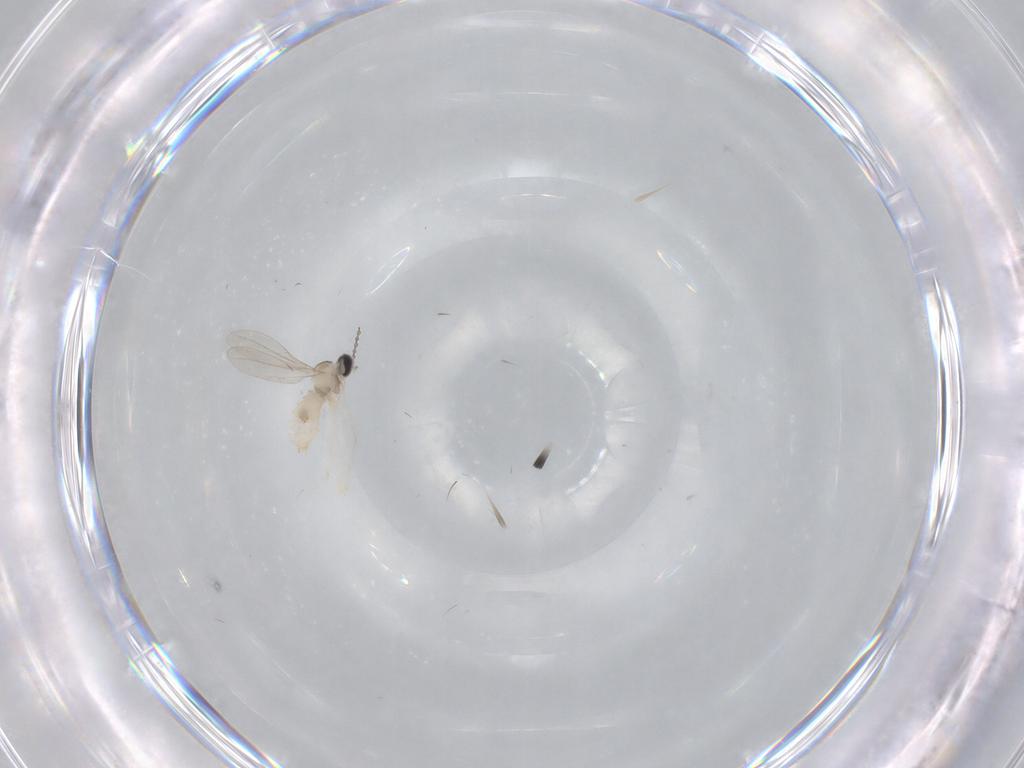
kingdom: Animalia
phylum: Arthropoda
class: Insecta
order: Diptera
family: Cecidomyiidae
